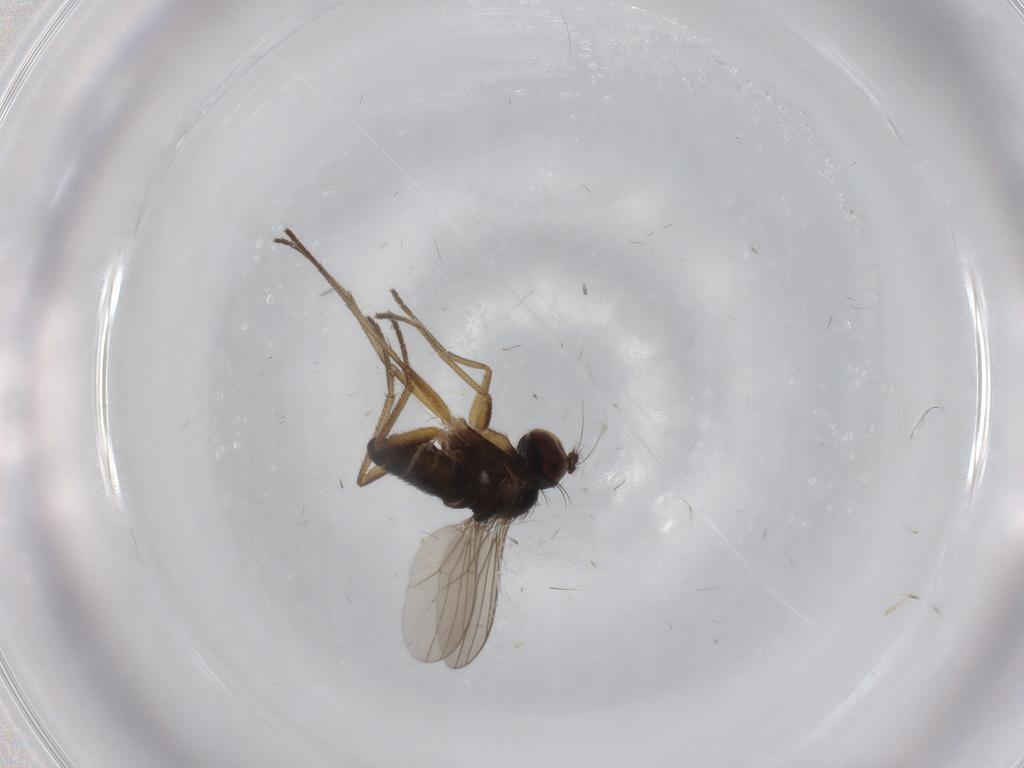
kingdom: Animalia
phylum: Arthropoda
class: Insecta
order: Diptera
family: Dolichopodidae
